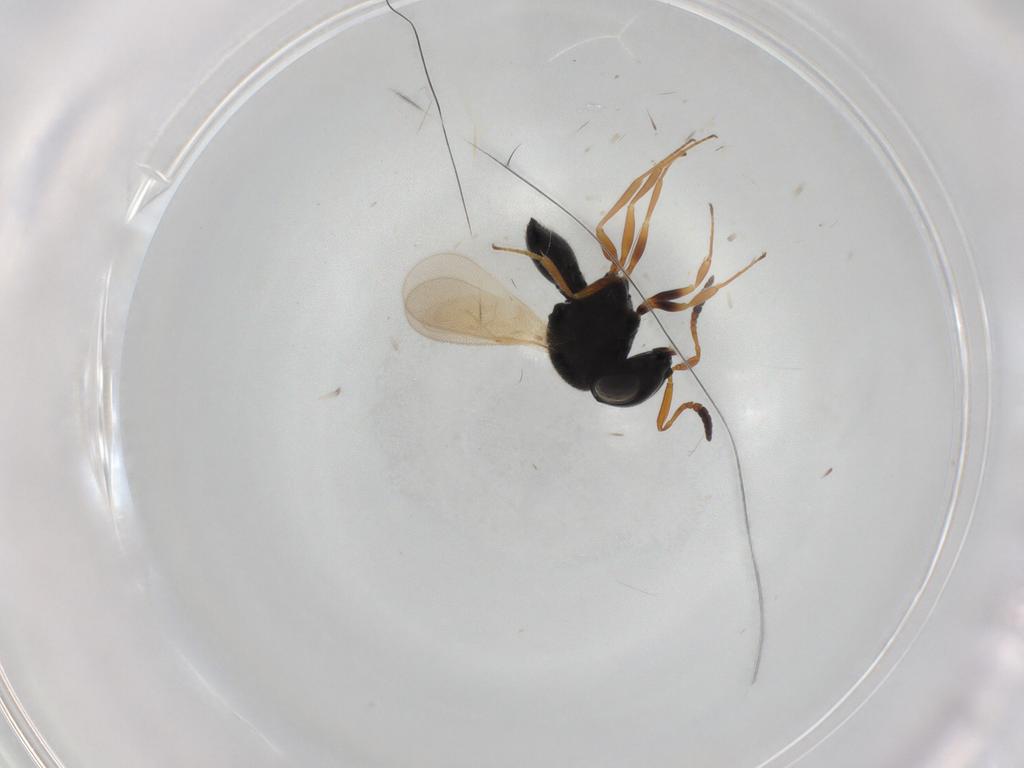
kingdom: Animalia
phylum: Arthropoda
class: Insecta
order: Hymenoptera
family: Scelionidae
